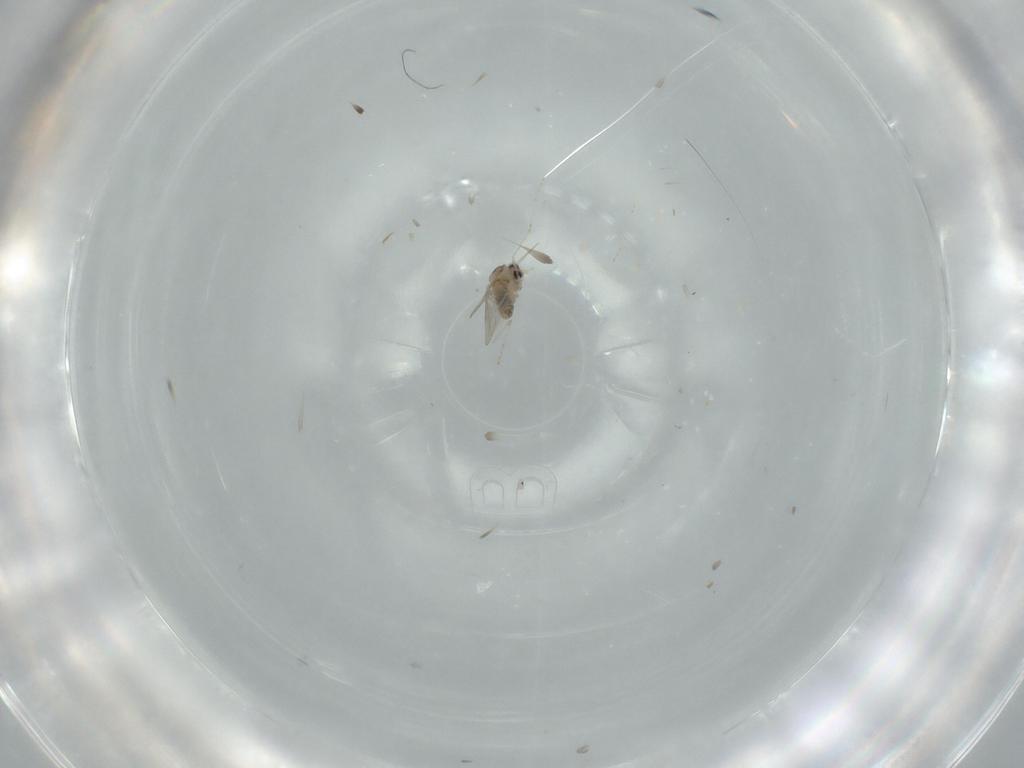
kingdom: Animalia
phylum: Arthropoda
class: Insecta
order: Diptera
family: Cecidomyiidae
